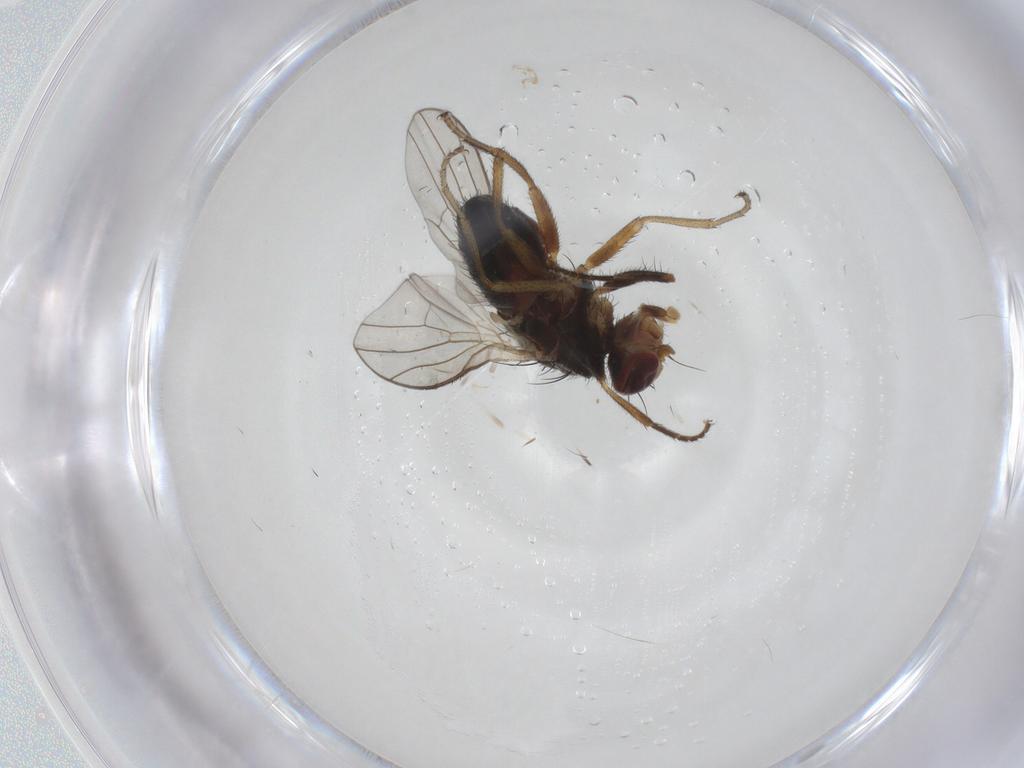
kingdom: Animalia
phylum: Arthropoda
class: Insecta
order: Diptera
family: Heleomyzidae
